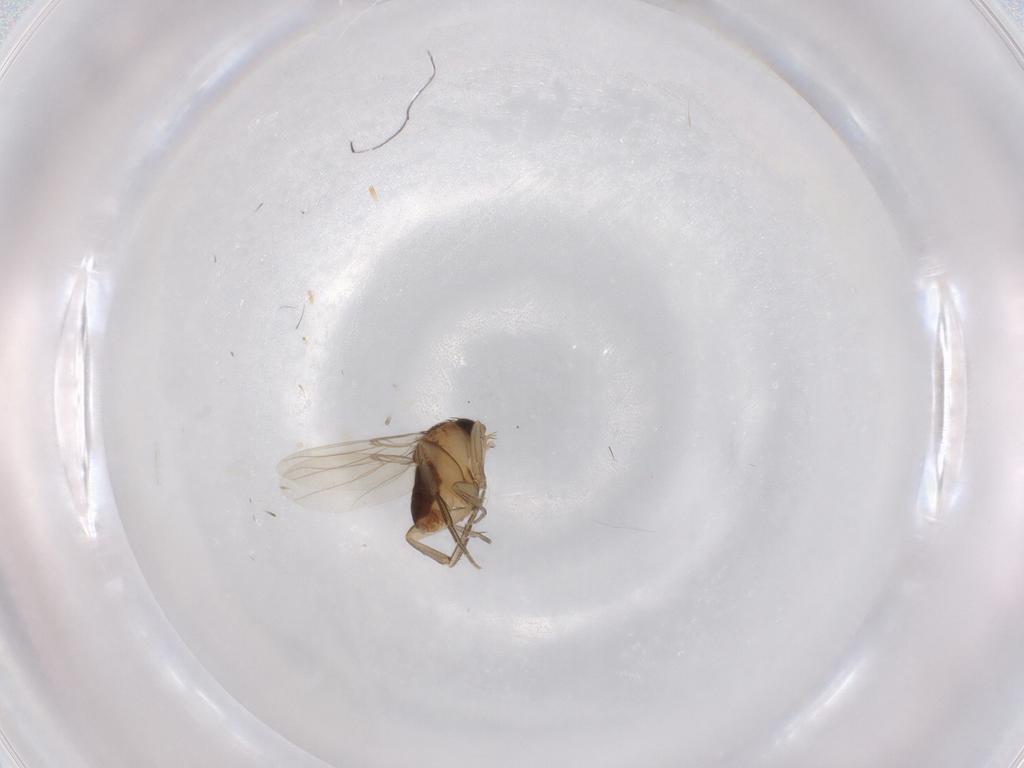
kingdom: Animalia
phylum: Arthropoda
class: Insecta
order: Diptera
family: Phoridae
